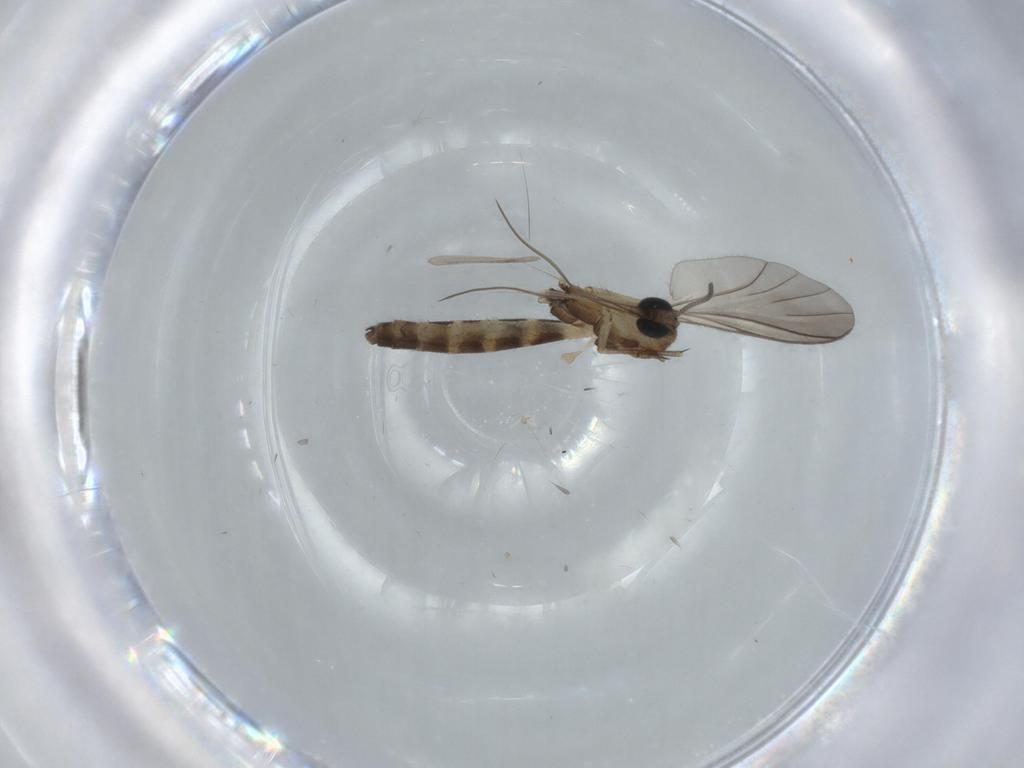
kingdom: Animalia
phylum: Arthropoda
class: Insecta
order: Diptera
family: Keroplatidae
